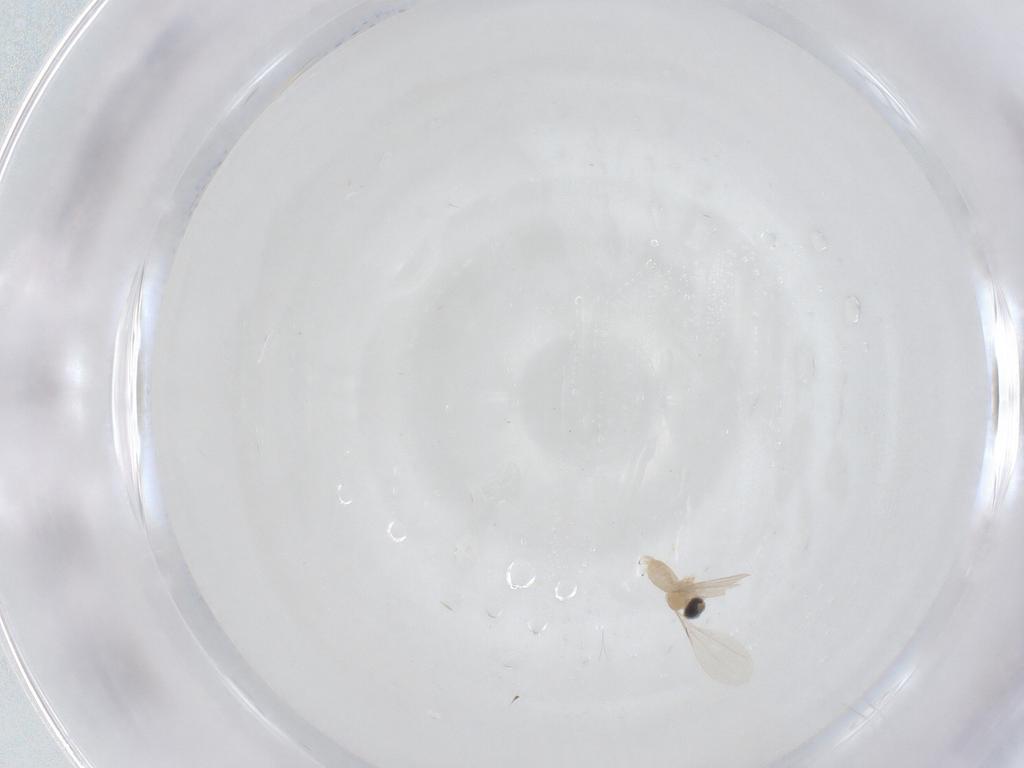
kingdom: Animalia
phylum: Arthropoda
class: Insecta
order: Diptera
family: Cecidomyiidae
